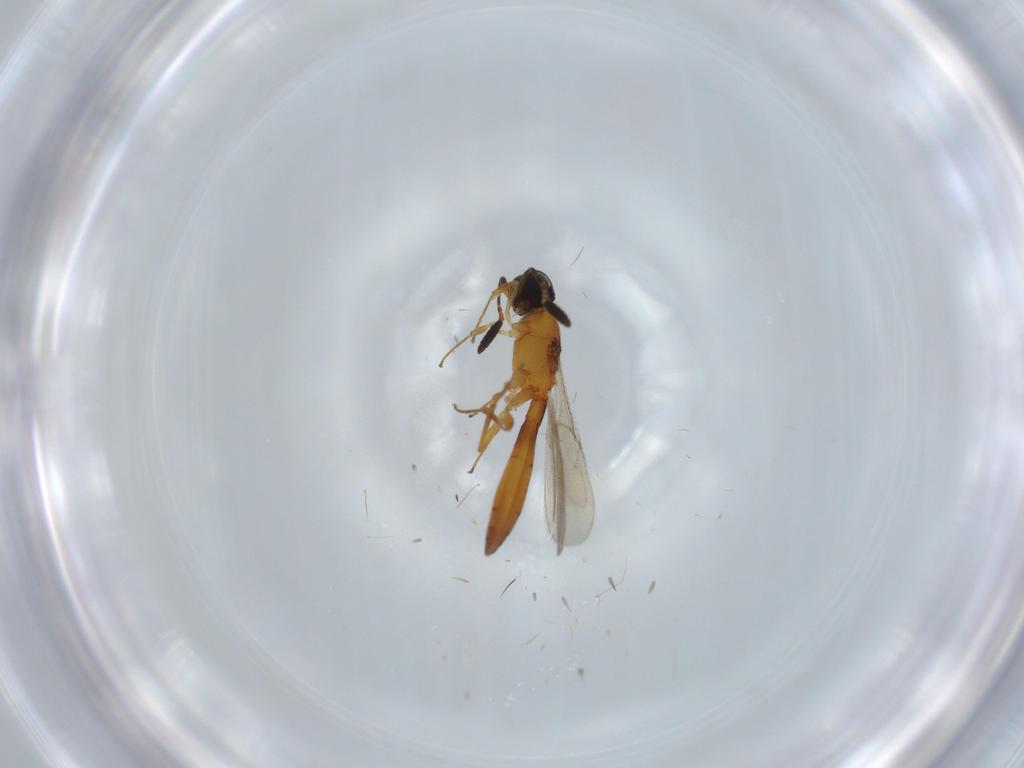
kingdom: Animalia
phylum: Arthropoda
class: Insecta
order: Hymenoptera
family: Scelionidae
